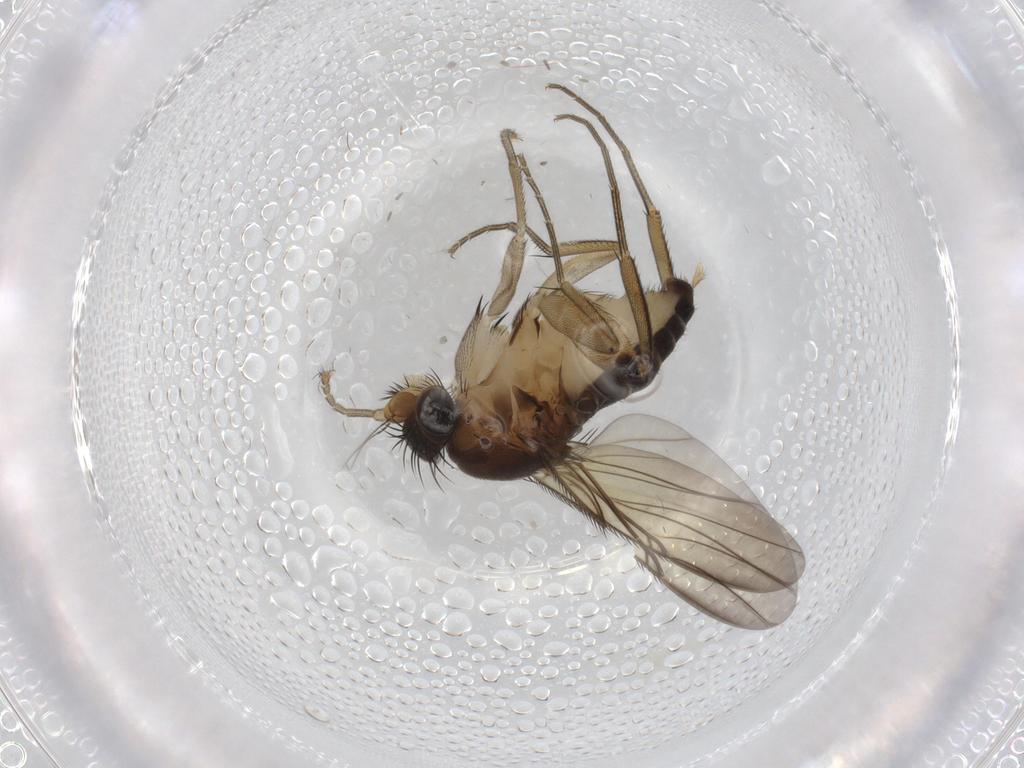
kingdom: Animalia
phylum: Arthropoda
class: Insecta
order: Diptera
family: Phoridae
